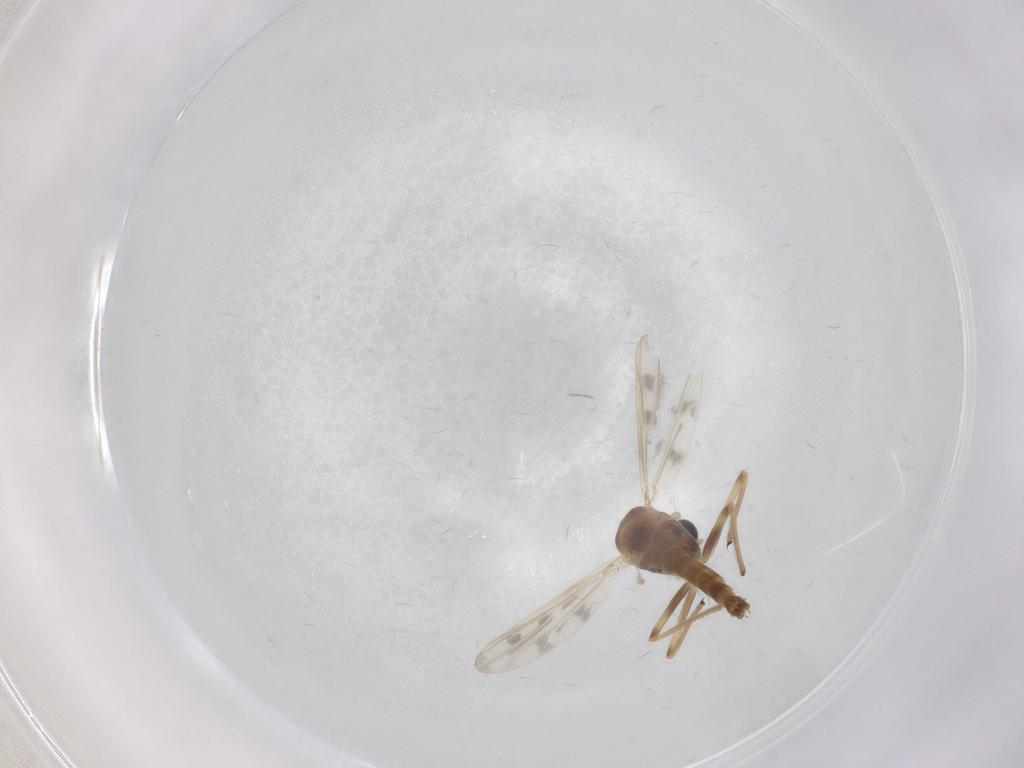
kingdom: Animalia
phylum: Arthropoda
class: Insecta
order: Diptera
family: Chironomidae
